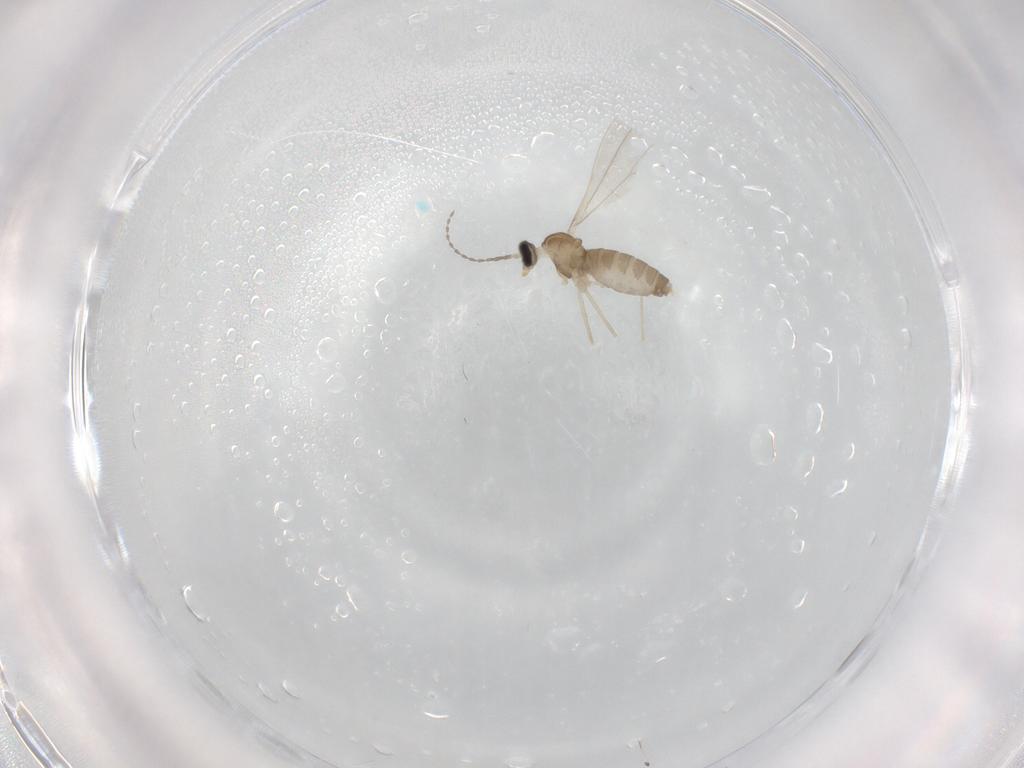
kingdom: Animalia
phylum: Arthropoda
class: Insecta
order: Diptera
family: Cecidomyiidae
